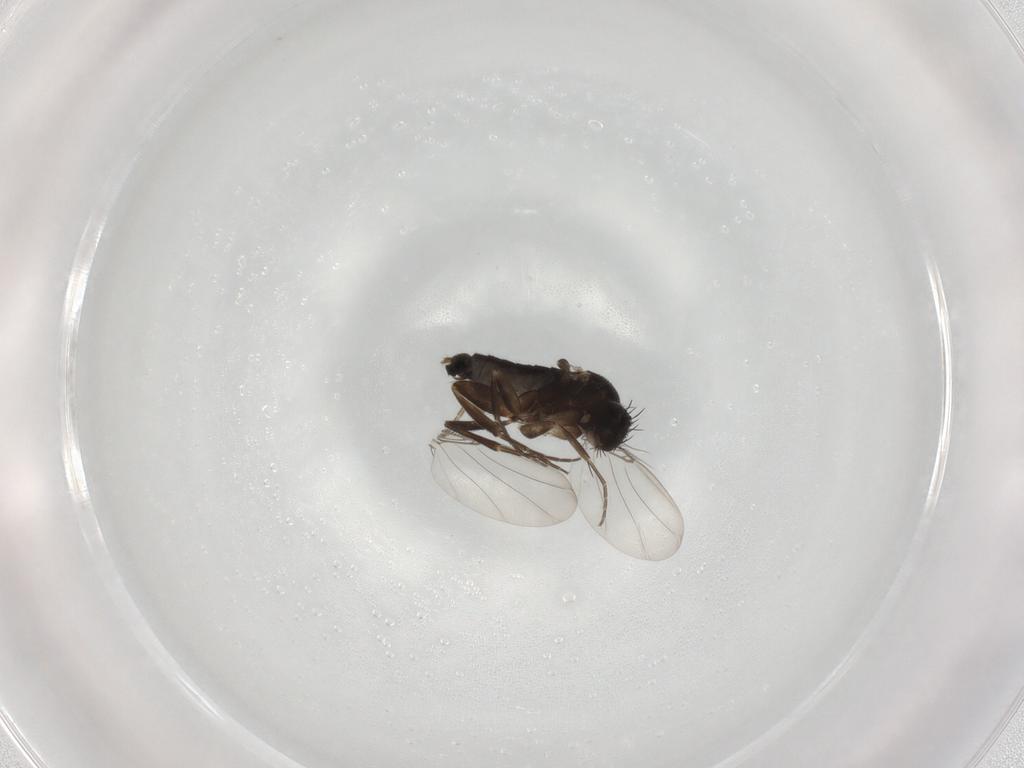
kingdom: Animalia
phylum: Arthropoda
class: Insecta
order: Diptera
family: Phoridae
